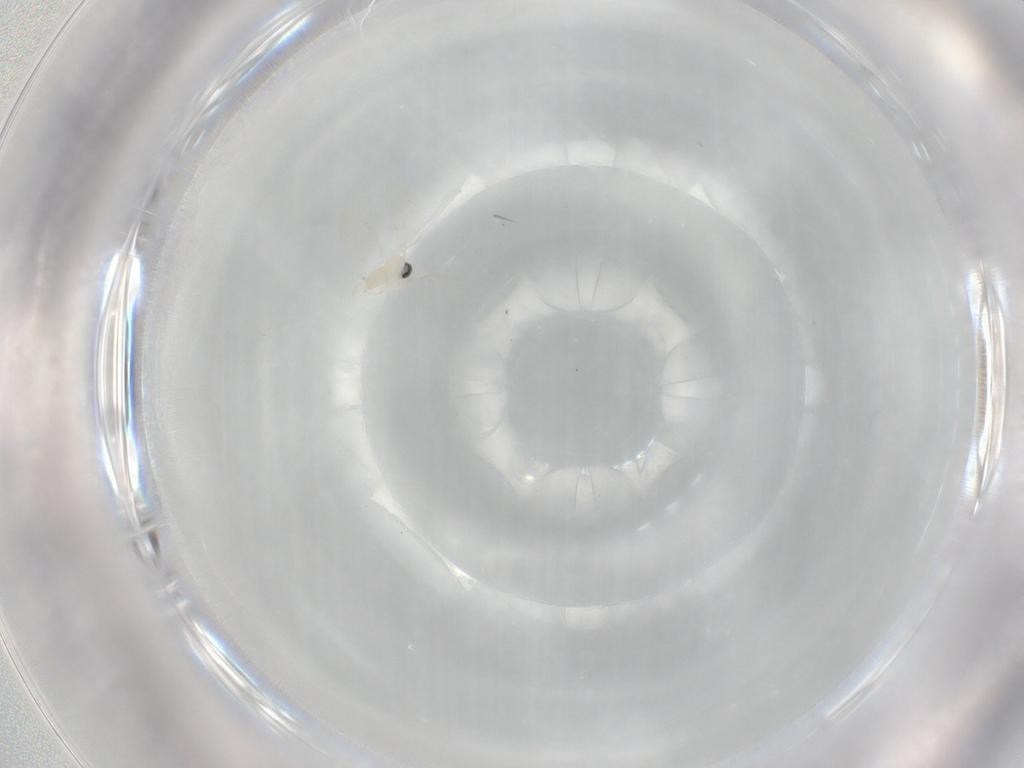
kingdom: Animalia
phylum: Arthropoda
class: Insecta
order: Diptera
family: Cecidomyiidae
